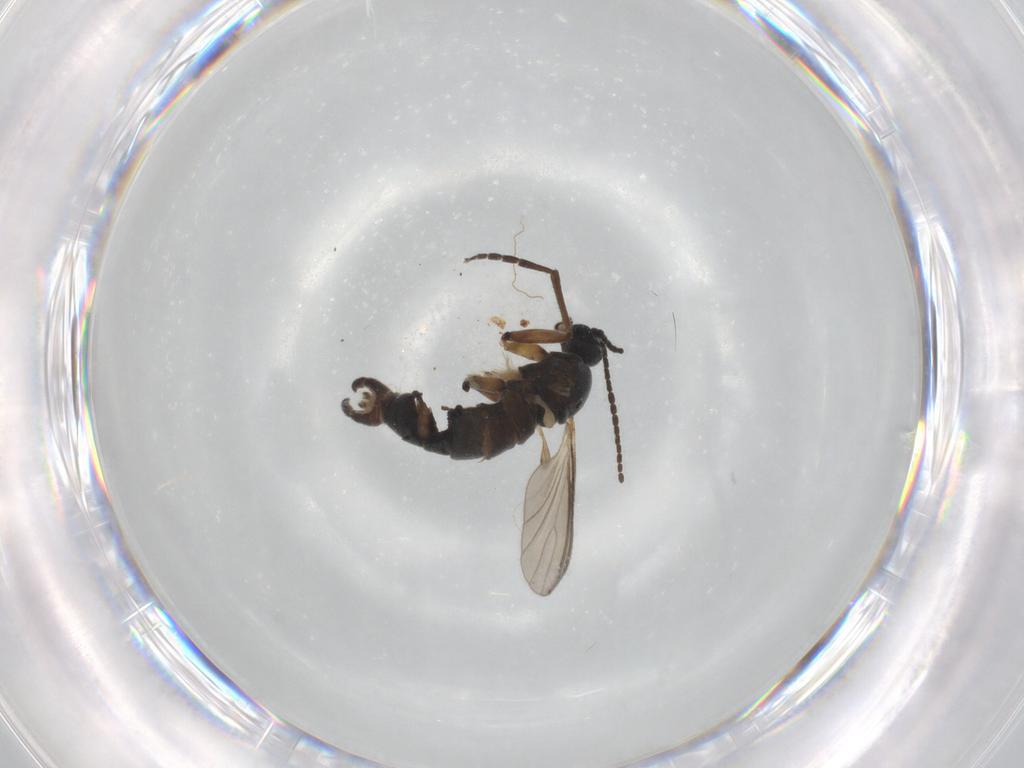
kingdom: Animalia
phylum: Arthropoda
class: Insecta
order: Diptera
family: Sciaridae
